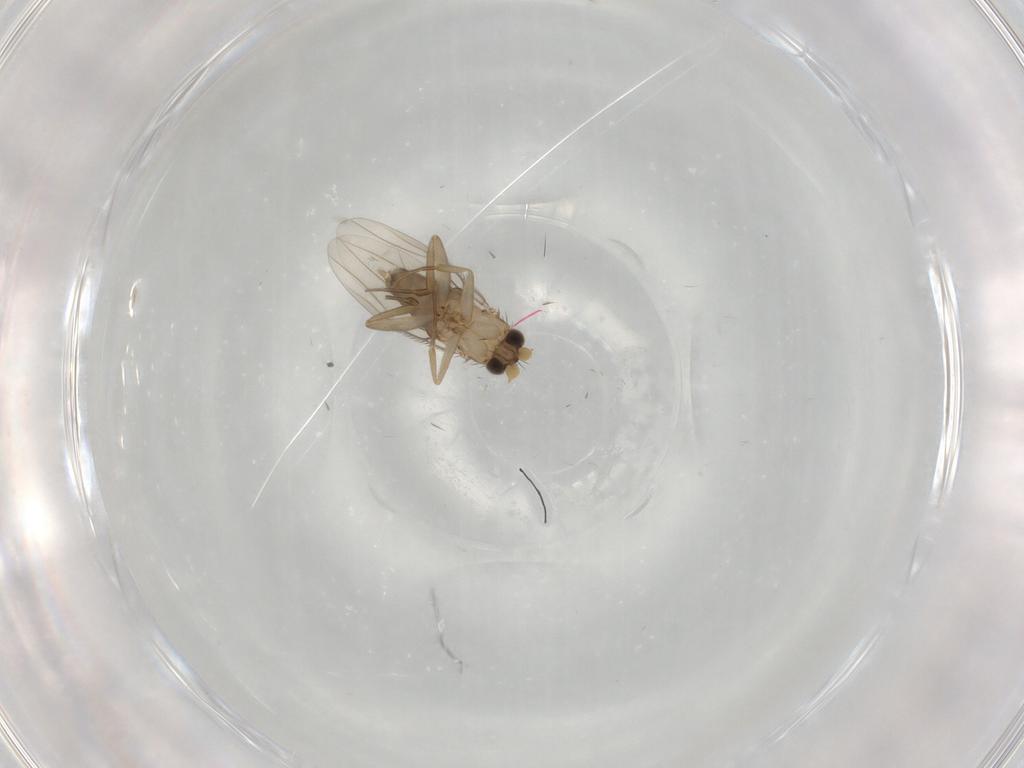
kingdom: Animalia
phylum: Arthropoda
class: Insecta
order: Diptera
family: Phoridae
